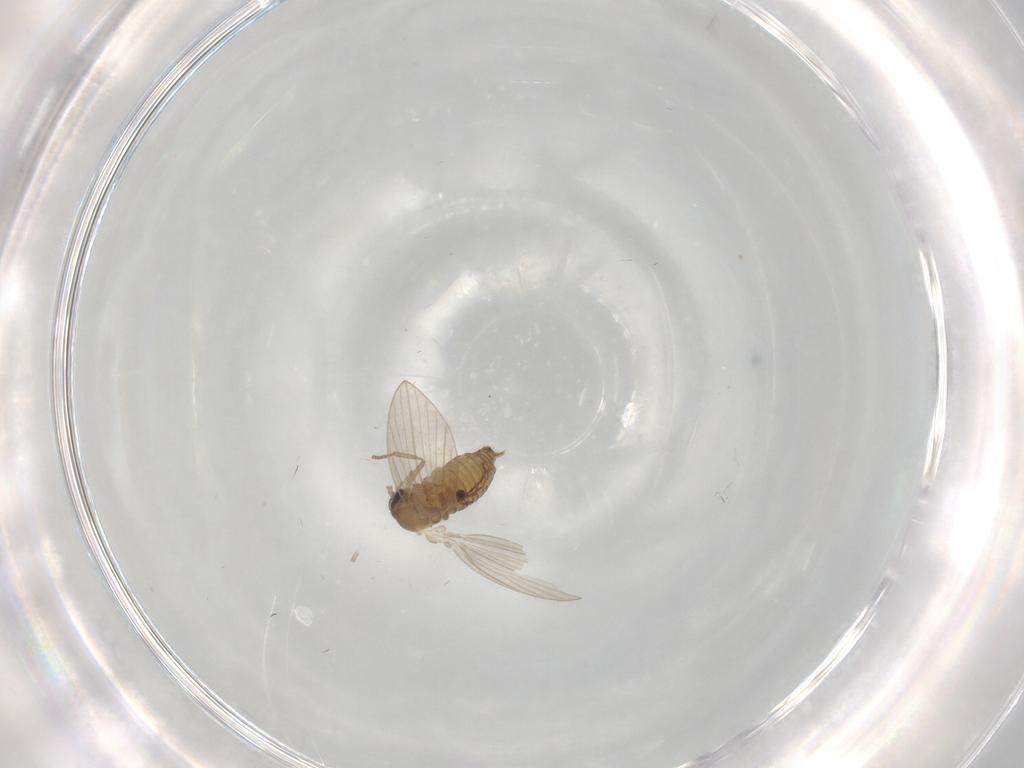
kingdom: Animalia
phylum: Arthropoda
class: Insecta
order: Diptera
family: Psychodidae
